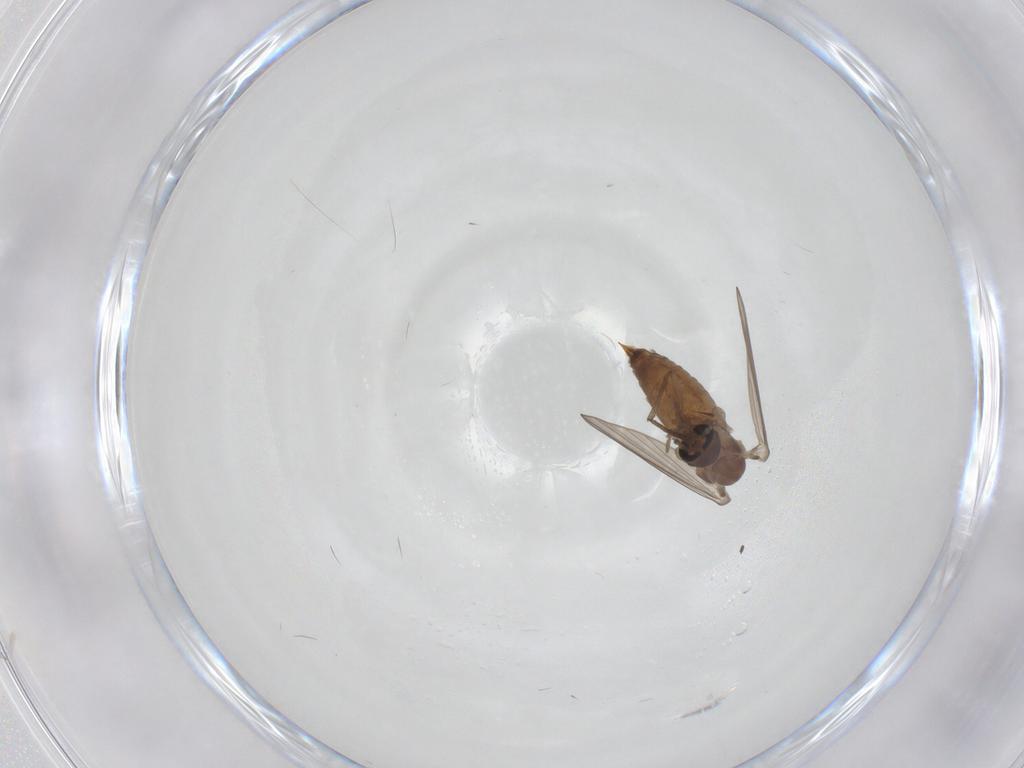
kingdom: Animalia
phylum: Arthropoda
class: Insecta
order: Diptera
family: Psychodidae
